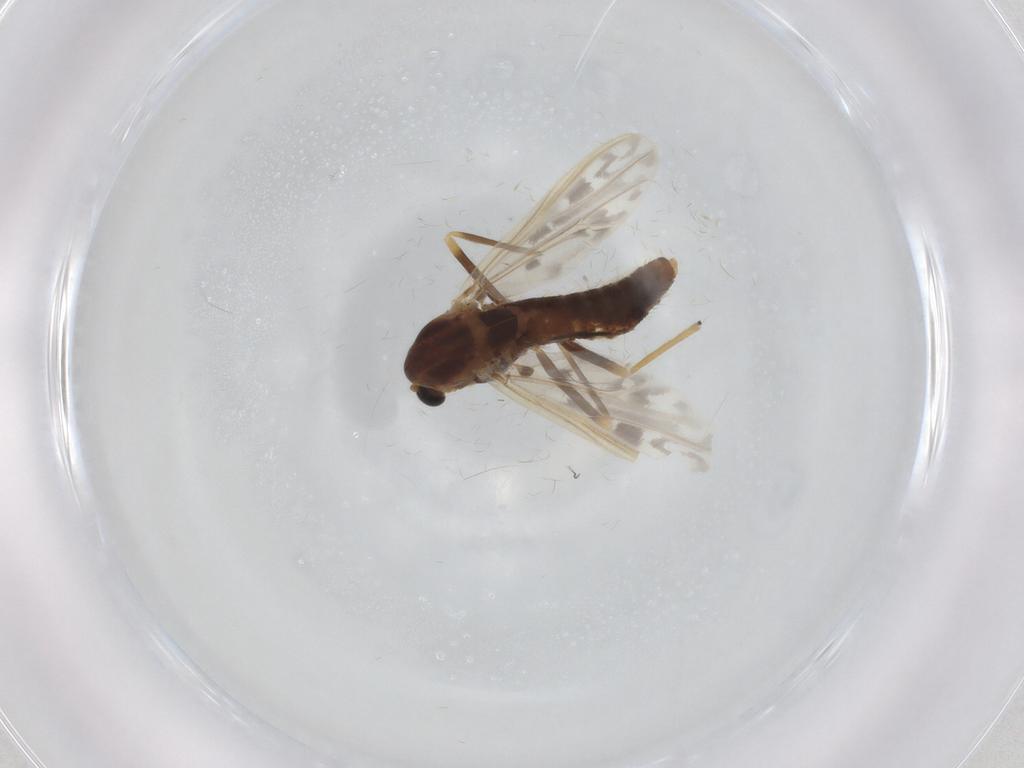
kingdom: Animalia
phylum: Arthropoda
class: Insecta
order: Diptera
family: Chironomidae
